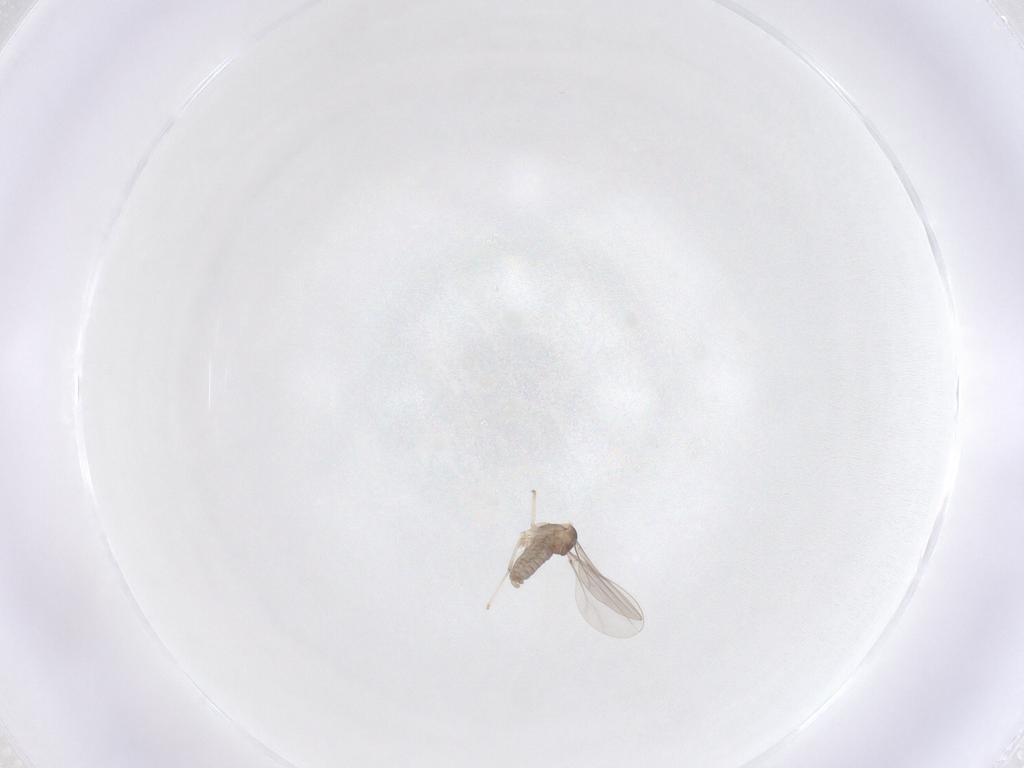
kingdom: Animalia
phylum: Arthropoda
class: Insecta
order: Diptera
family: Cecidomyiidae
